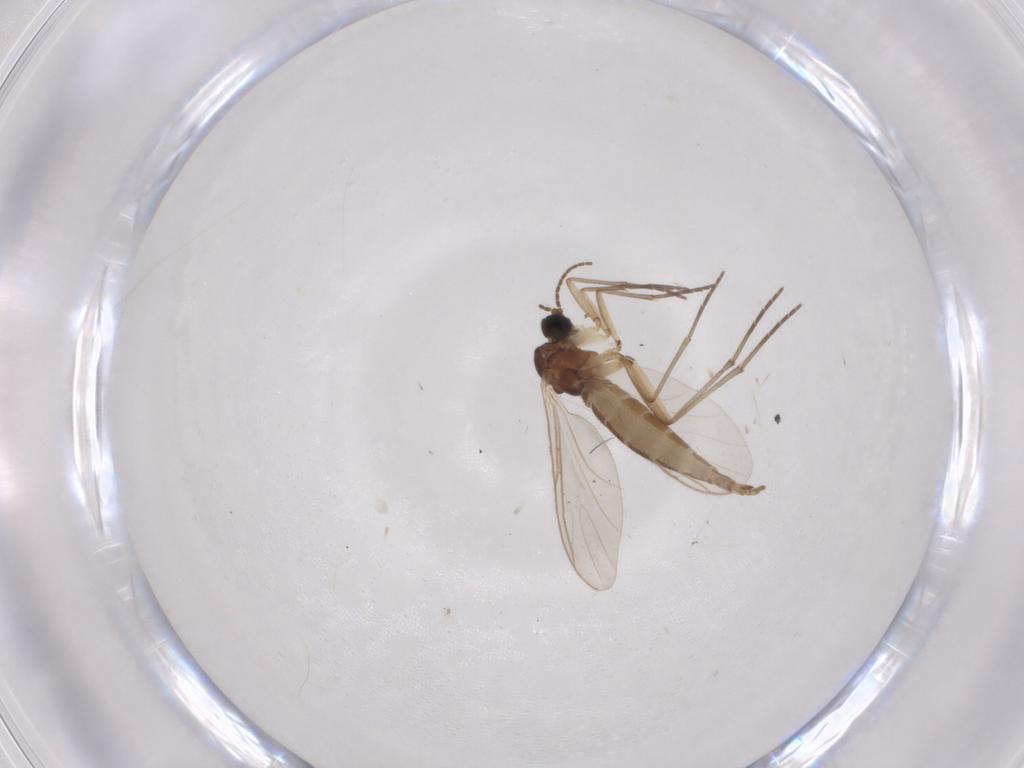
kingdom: Animalia
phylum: Arthropoda
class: Insecta
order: Diptera
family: Sciaridae
